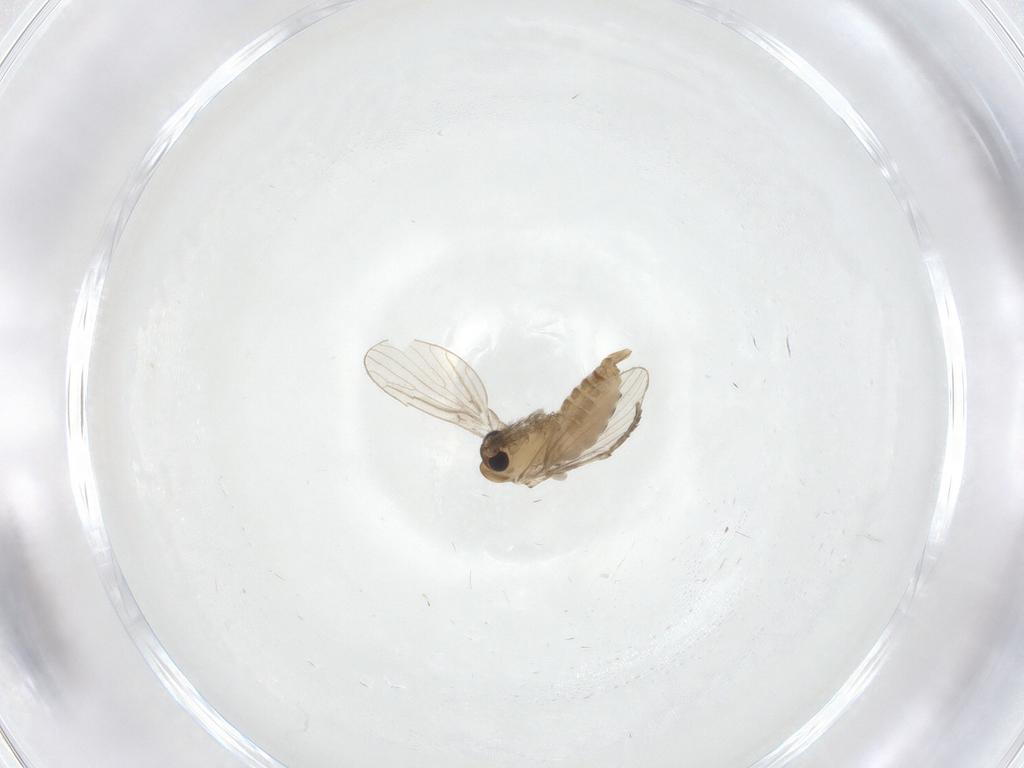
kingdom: Animalia
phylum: Arthropoda
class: Insecta
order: Diptera
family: Psychodidae
